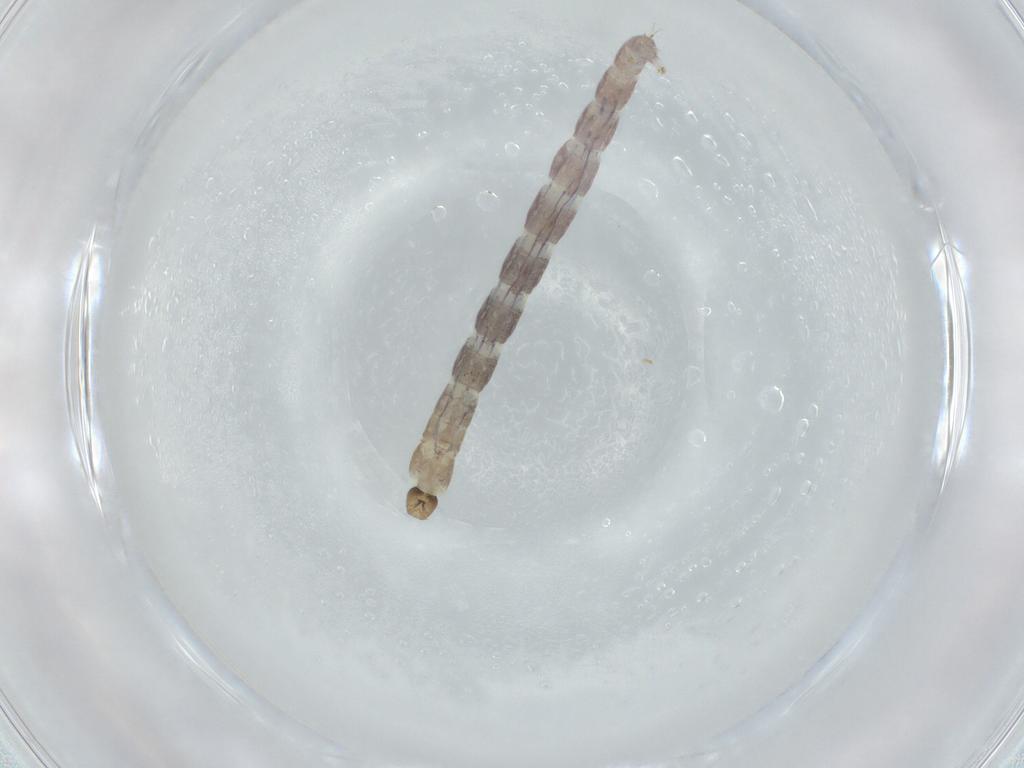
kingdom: Animalia
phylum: Arthropoda
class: Insecta
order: Diptera
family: Chironomidae
